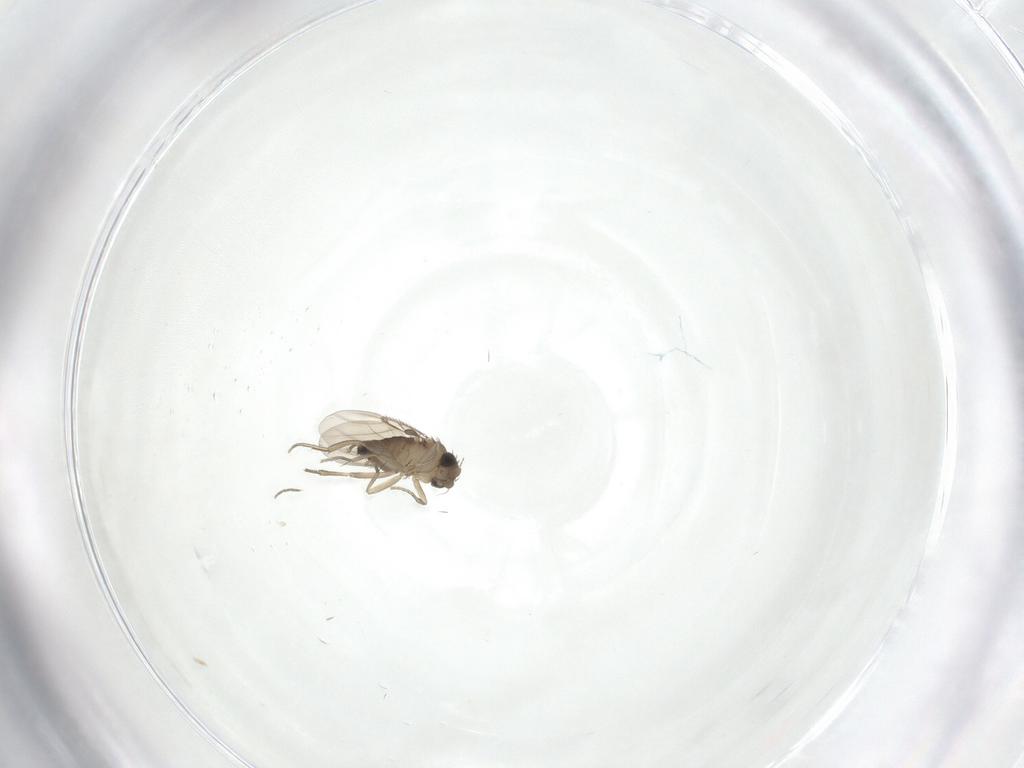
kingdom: Animalia
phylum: Arthropoda
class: Insecta
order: Diptera
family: Phoridae
